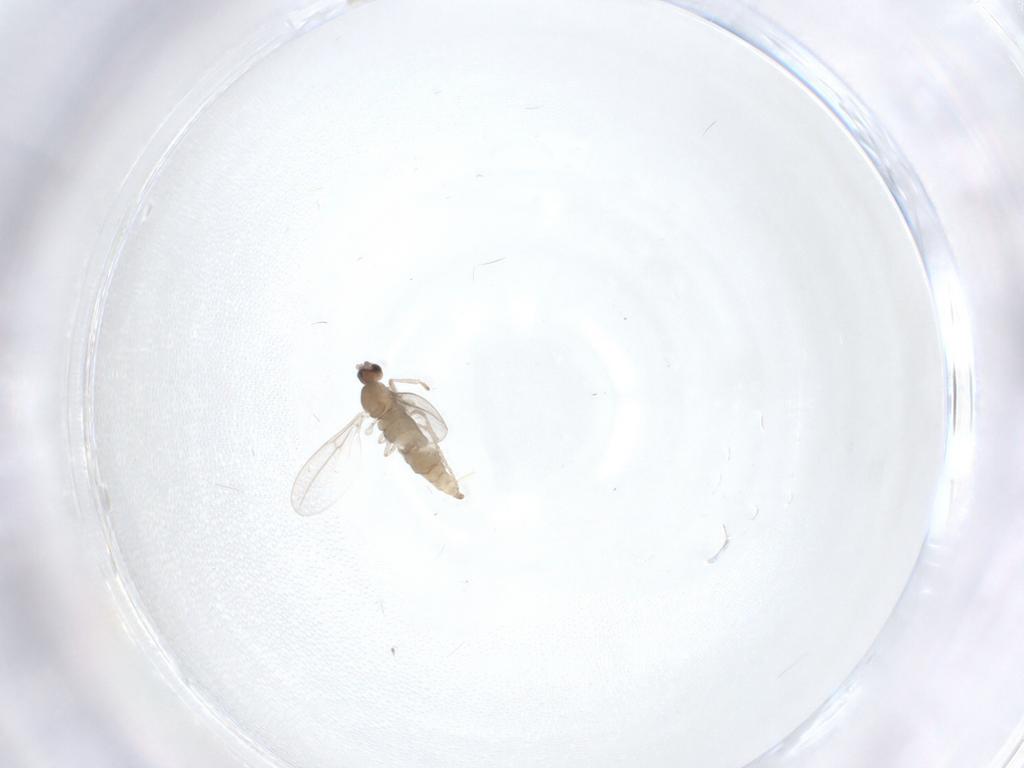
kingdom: Animalia
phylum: Arthropoda
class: Insecta
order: Diptera
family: Cecidomyiidae
